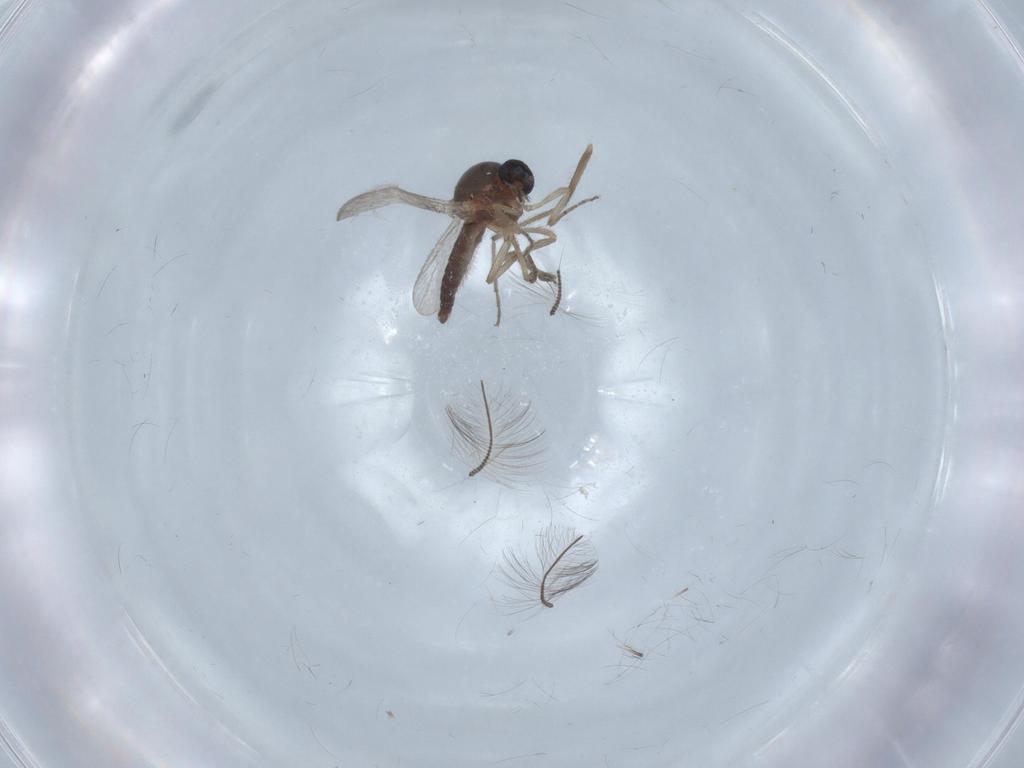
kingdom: Animalia
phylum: Arthropoda
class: Insecta
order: Diptera
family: Chironomidae
